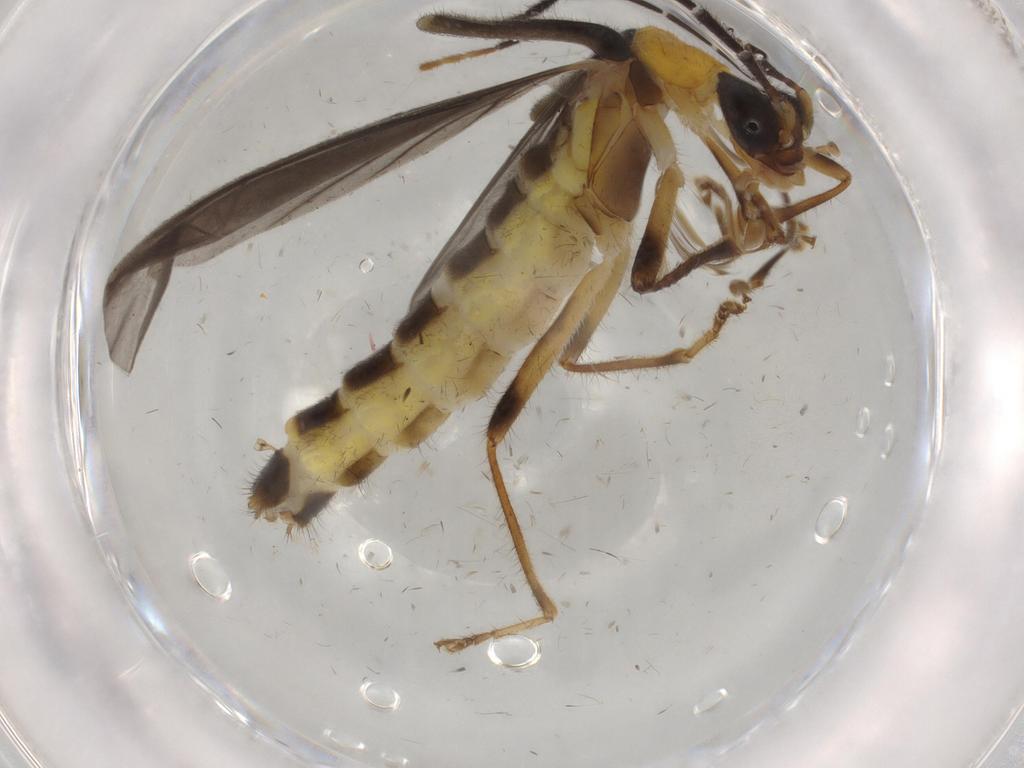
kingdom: Animalia
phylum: Arthropoda
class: Insecta
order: Coleoptera
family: Cantharidae
